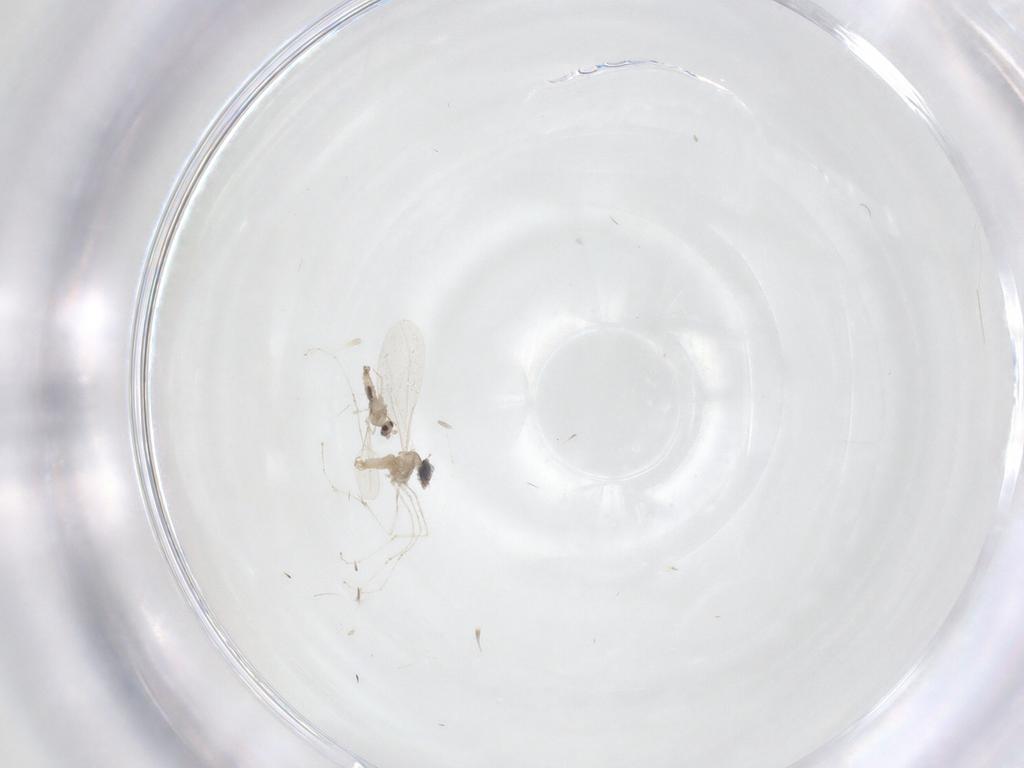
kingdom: Animalia
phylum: Arthropoda
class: Insecta
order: Diptera
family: Cecidomyiidae
